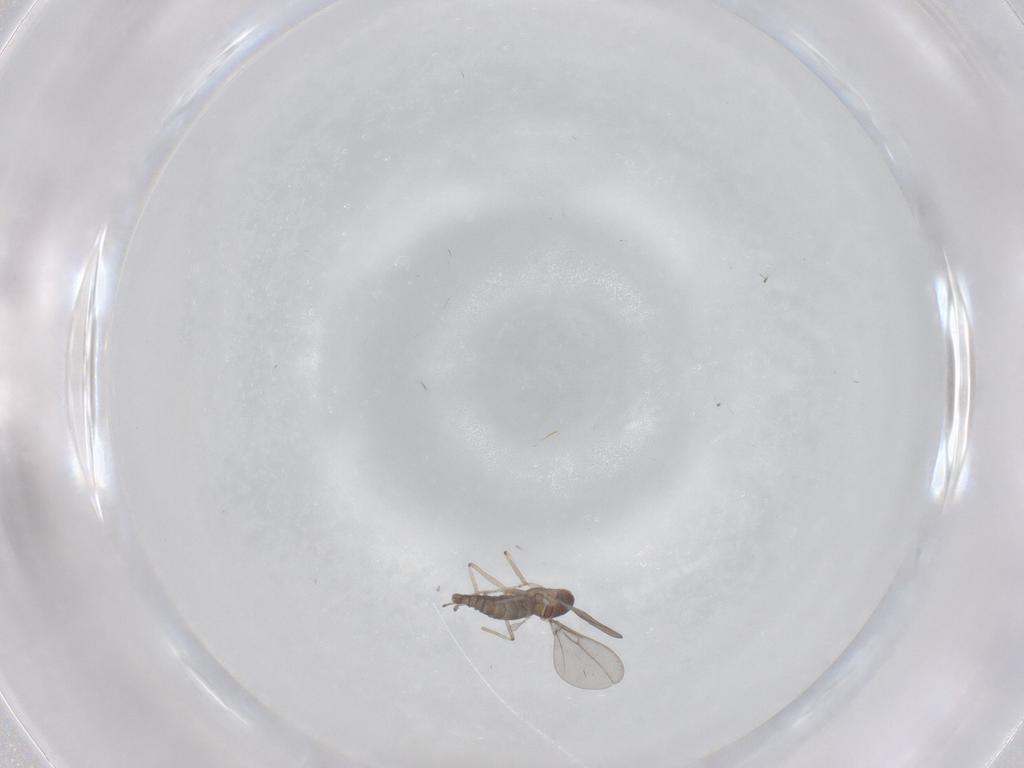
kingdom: Animalia
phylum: Arthropoda
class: Insecta
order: Diptera
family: Cecidomyiidae
